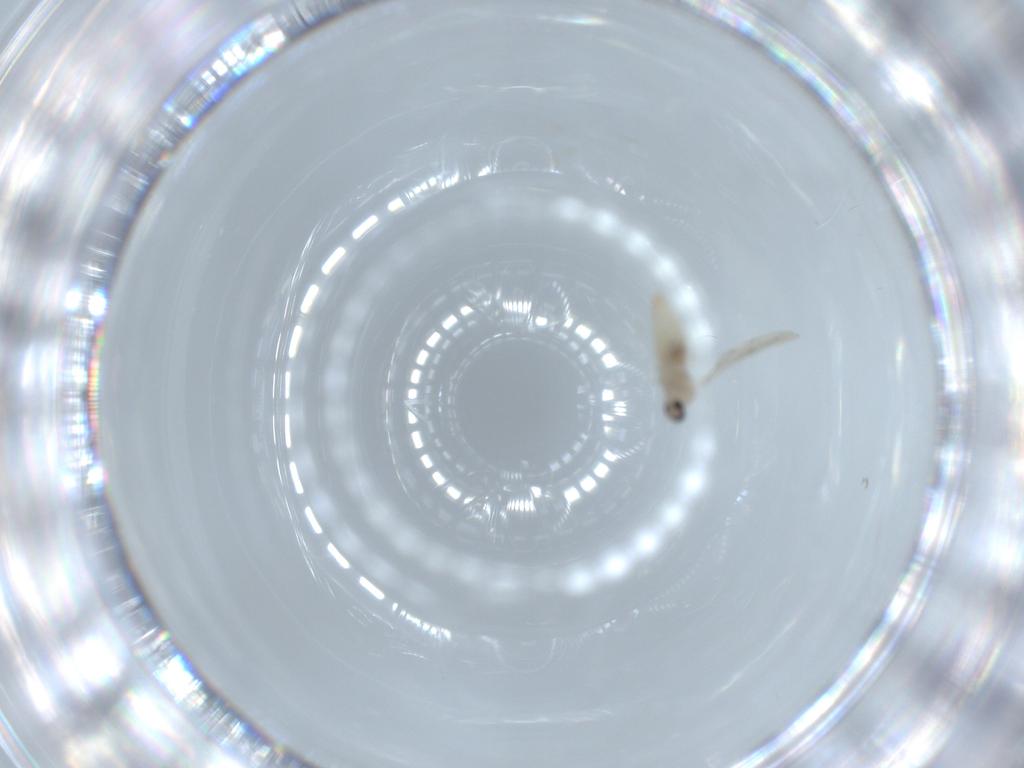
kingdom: Animalia
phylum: Arthropoda
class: Insecta
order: Diptera
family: Cecidomyiidae
